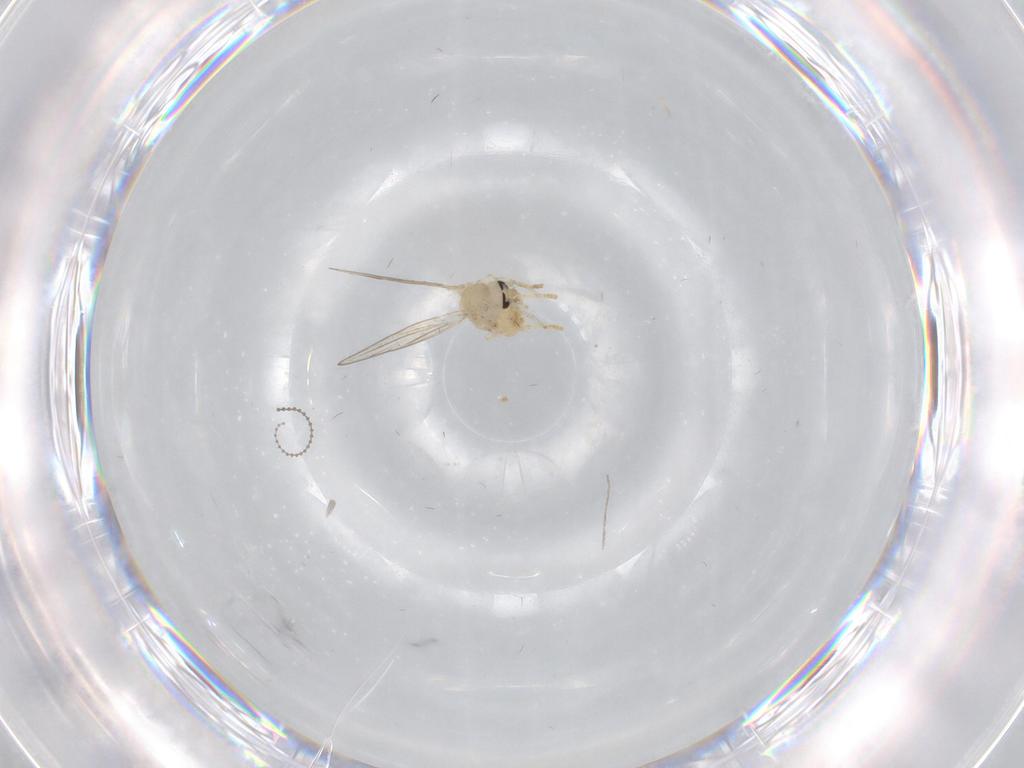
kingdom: Animalia
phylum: Arthropoda
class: Insecta
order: Diptera
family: Psychodidae
